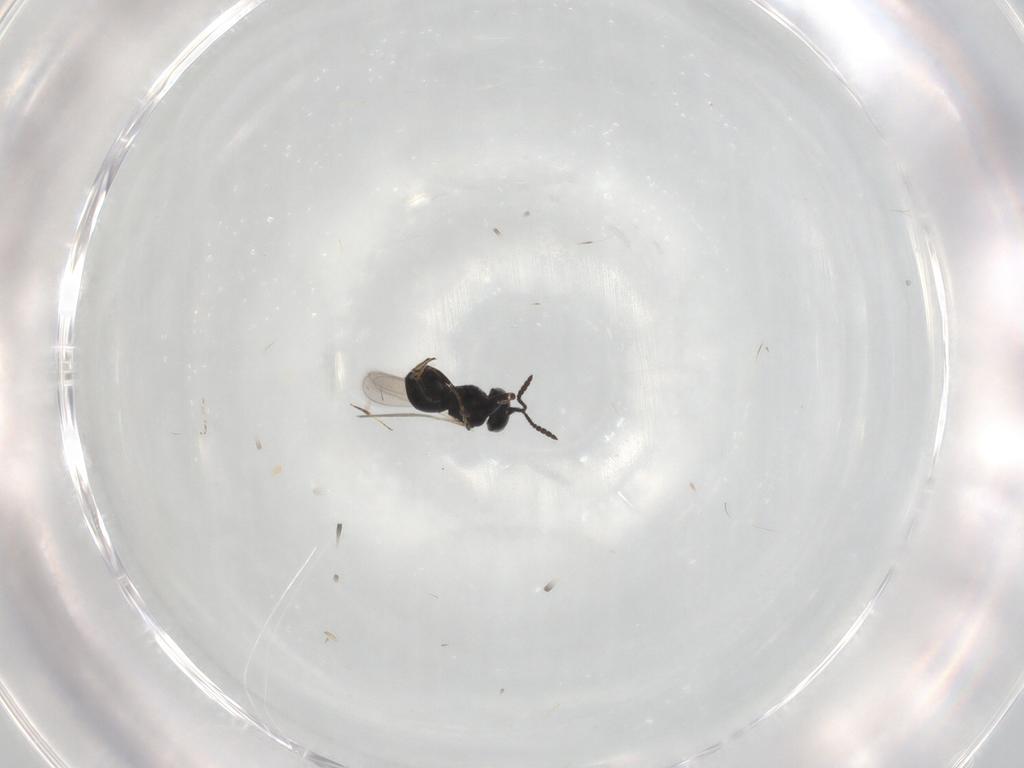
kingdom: Animalia
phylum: Arthropoda
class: Insecta
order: Hymenoptera
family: Scelionidae
